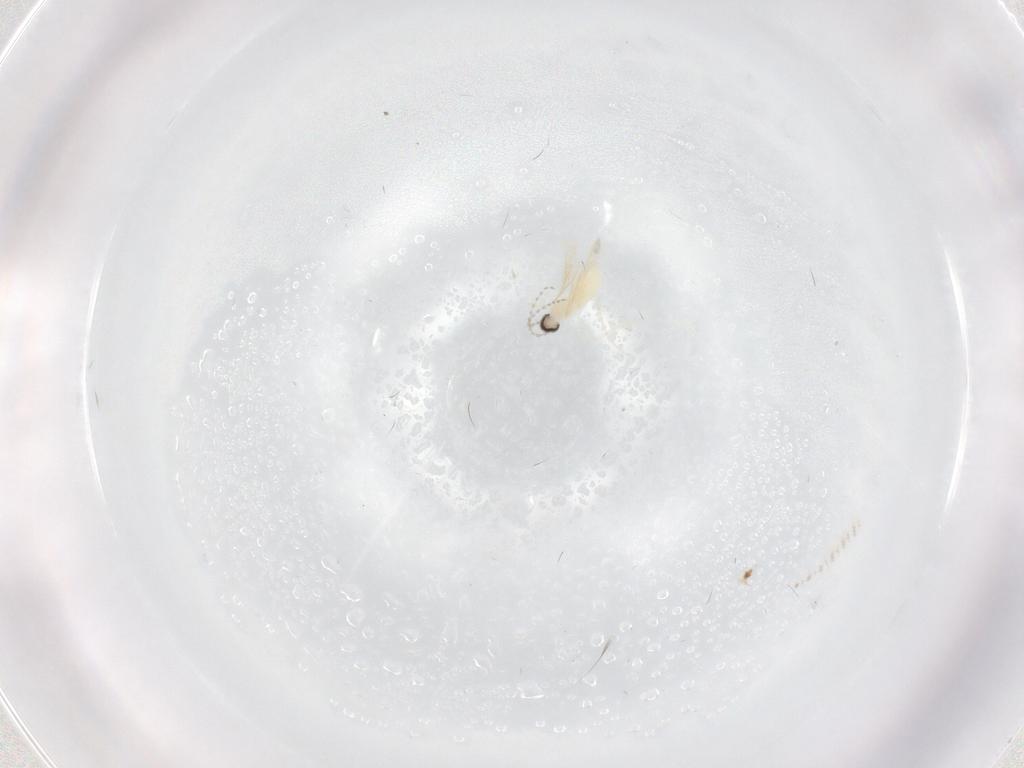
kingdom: Animalia
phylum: Arthropoda
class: Insecta
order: Diptera
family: Cecidomyiidae
